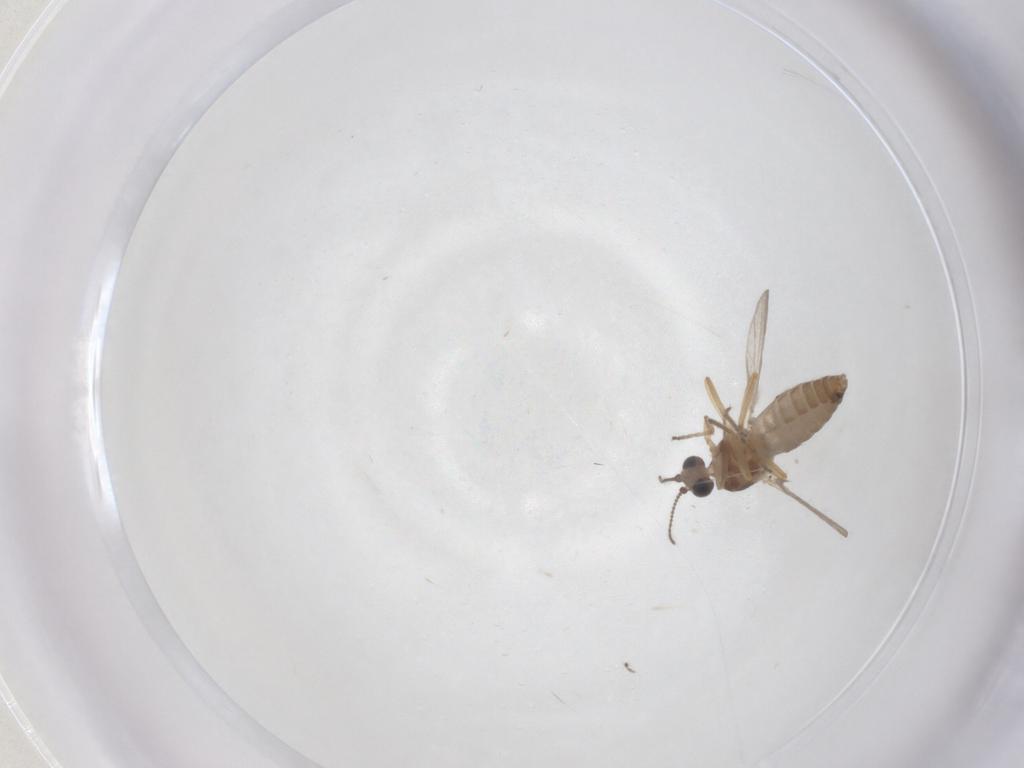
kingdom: Animalia
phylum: Arthropoda
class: Insecta
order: Diptera
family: Ceratopogonidae
